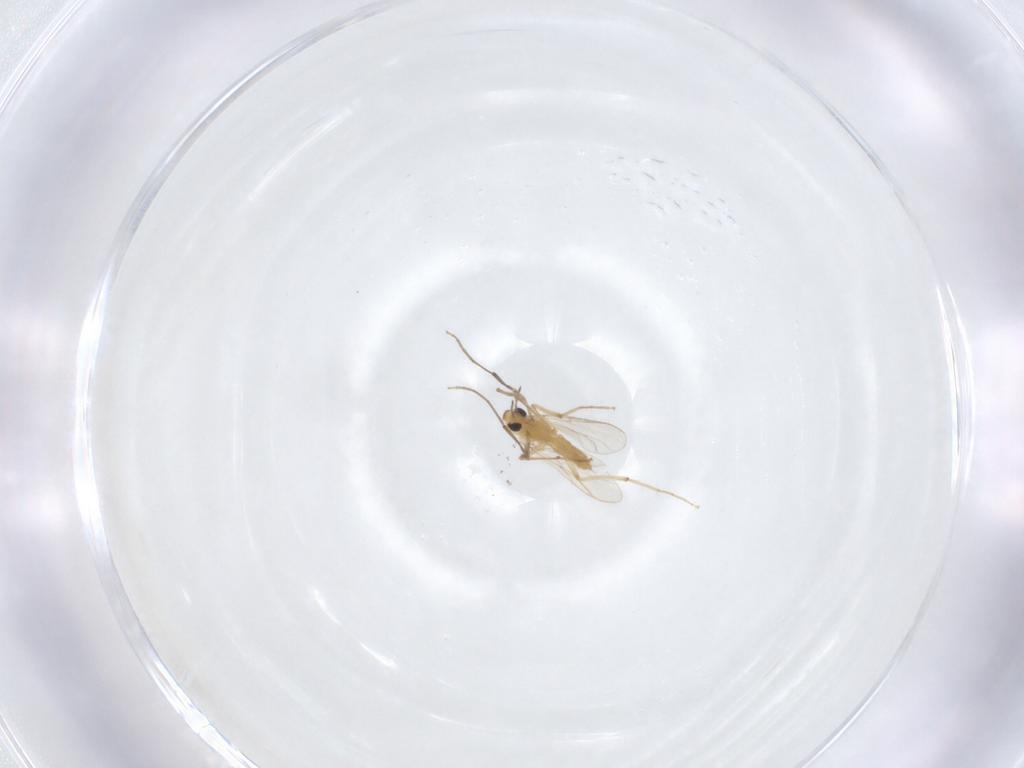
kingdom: Animalia
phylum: Arthropoda
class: Insecta
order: Diptera
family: Chironomidae
